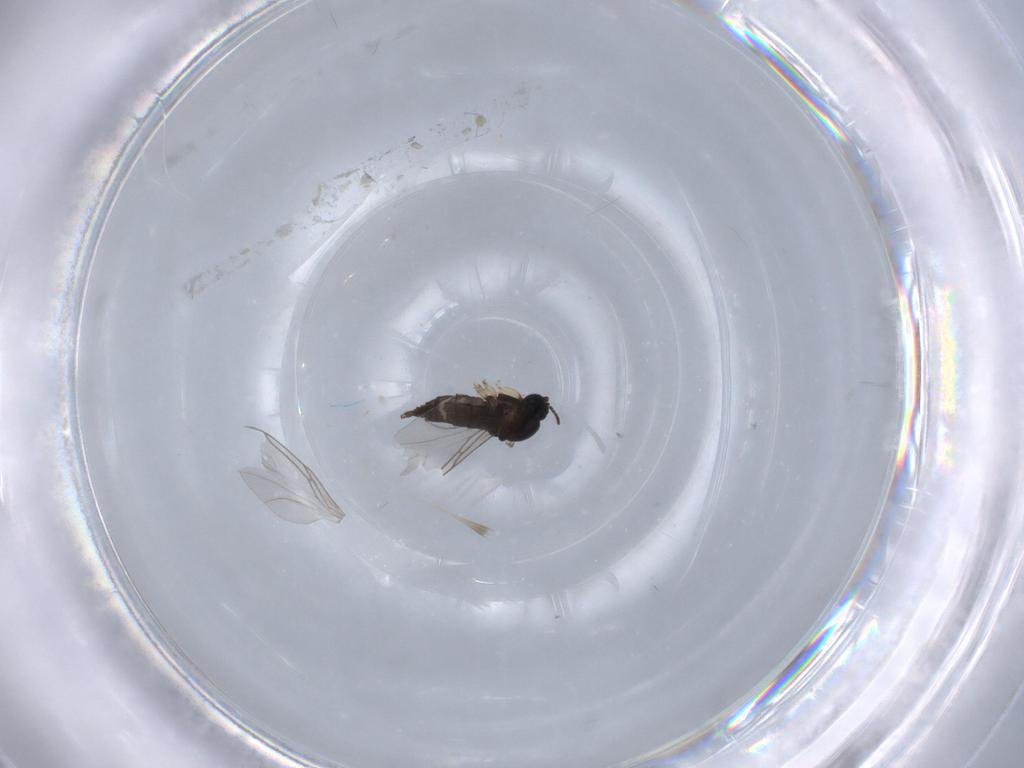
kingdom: Animalia
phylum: Arthropoda
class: Insecta
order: Diptera
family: Sciaridae
